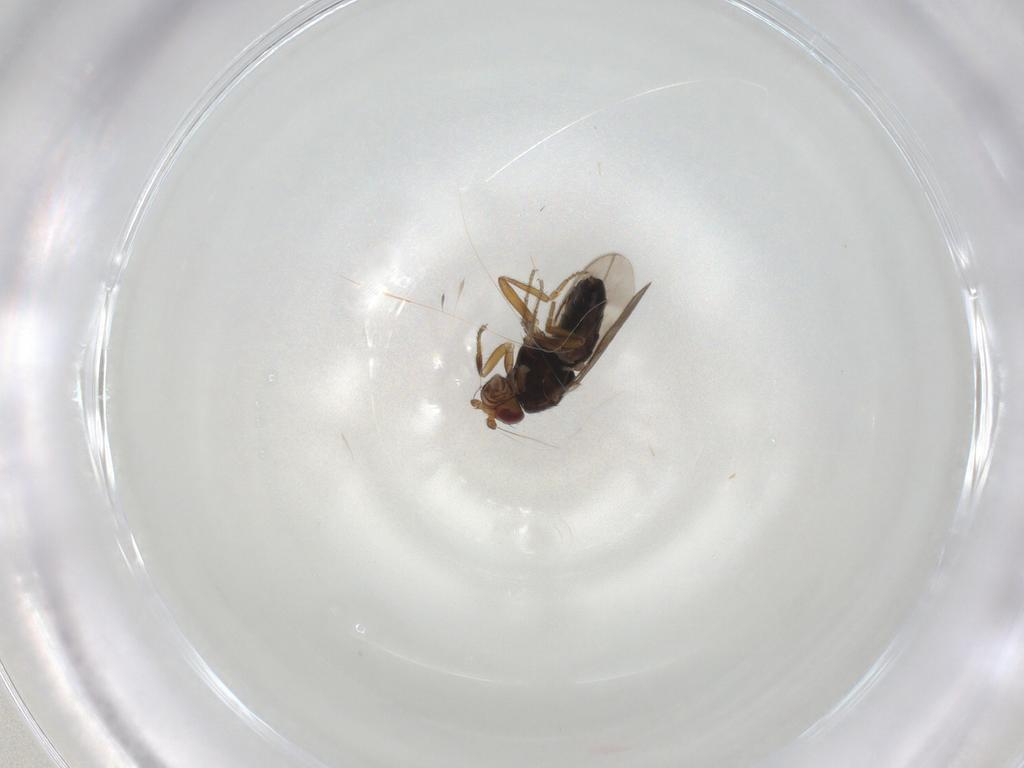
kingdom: Animalia
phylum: Arthropoda
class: Insecta
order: Diptera
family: Sphaeroceridae
